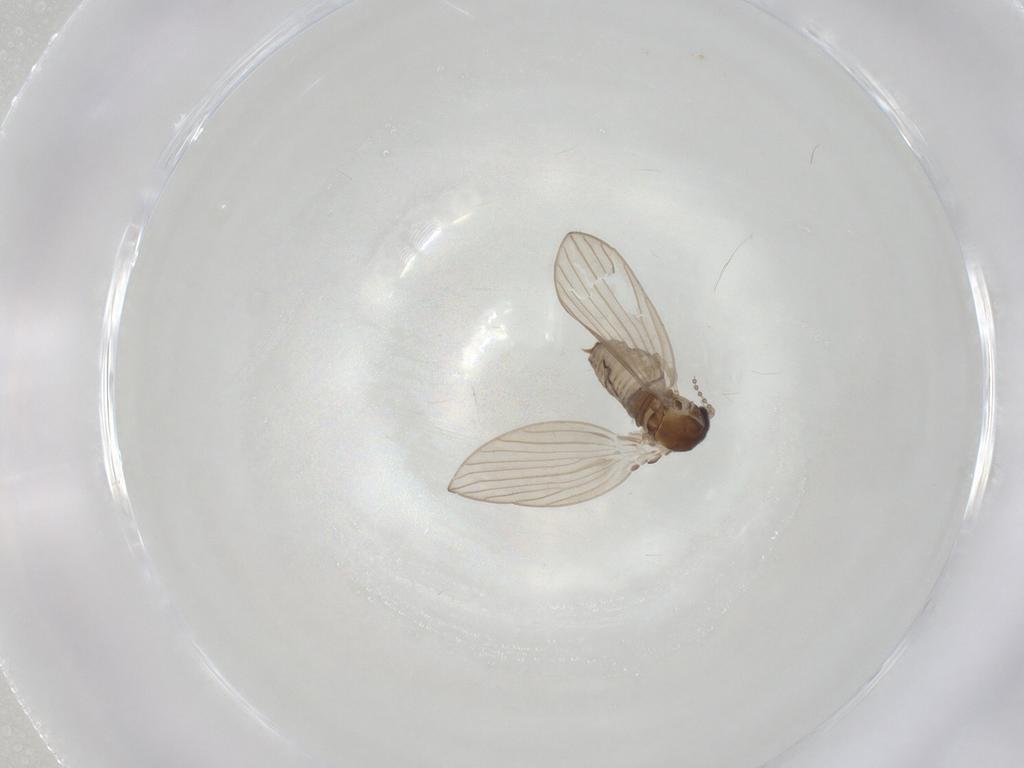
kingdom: Animalia
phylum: Arthropoda
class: Insecta
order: Diptera
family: Psychodidae
